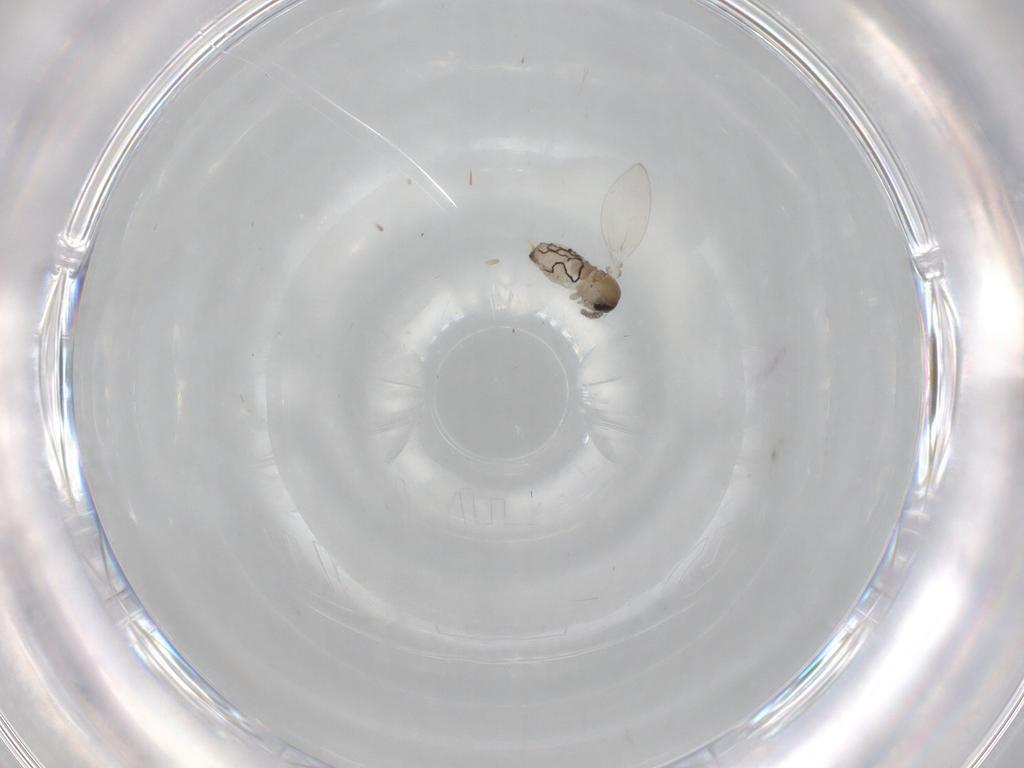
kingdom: Animalia
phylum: Arthropoda
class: Insecta
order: Diptera
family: Psychodidae
